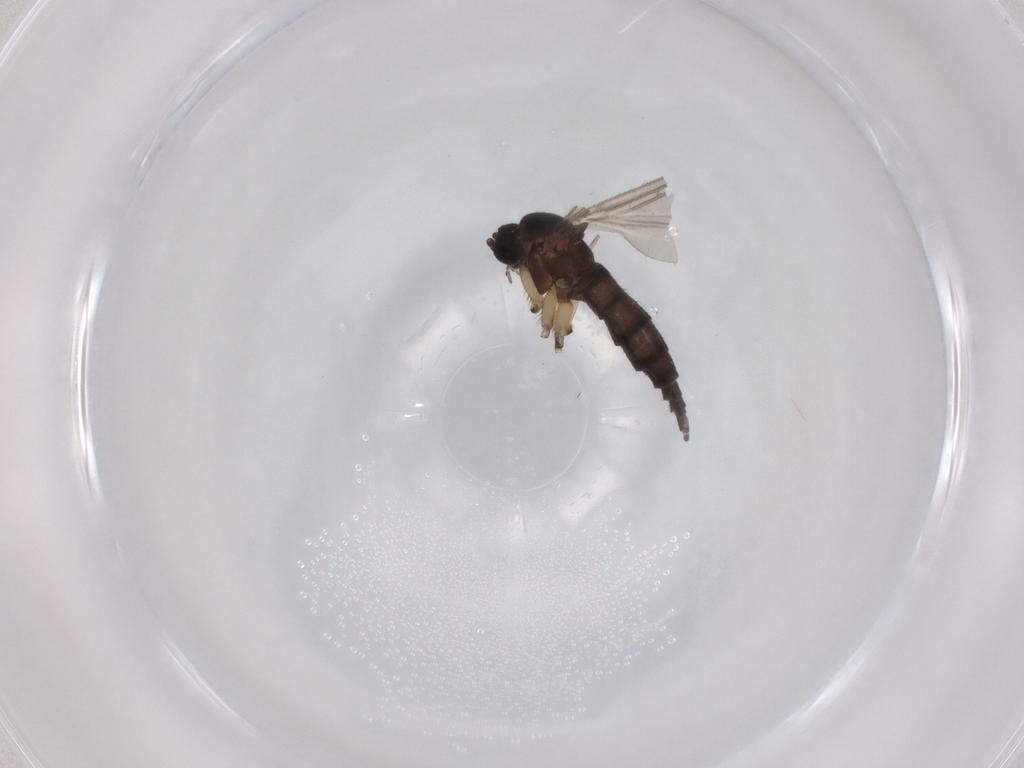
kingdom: Animalia
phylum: Arthropoda
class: Insecta
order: Diptera
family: Sciaridae
